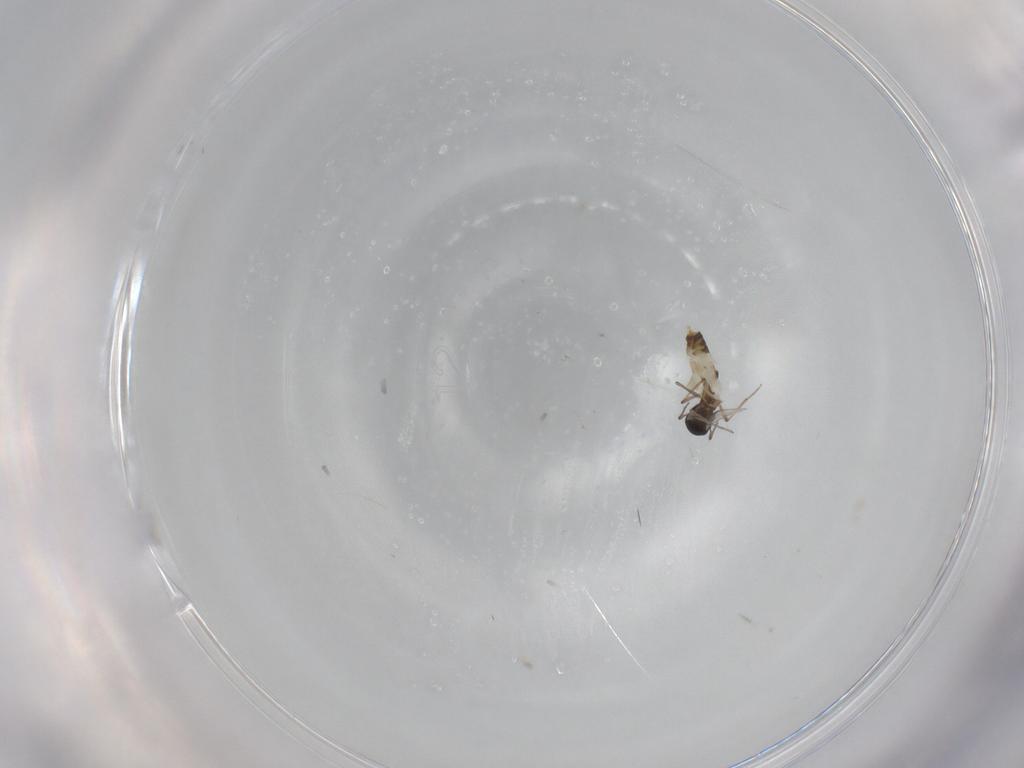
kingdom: Animalia
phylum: Arthropoda
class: Insecta
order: Diptera
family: Chironomidae
